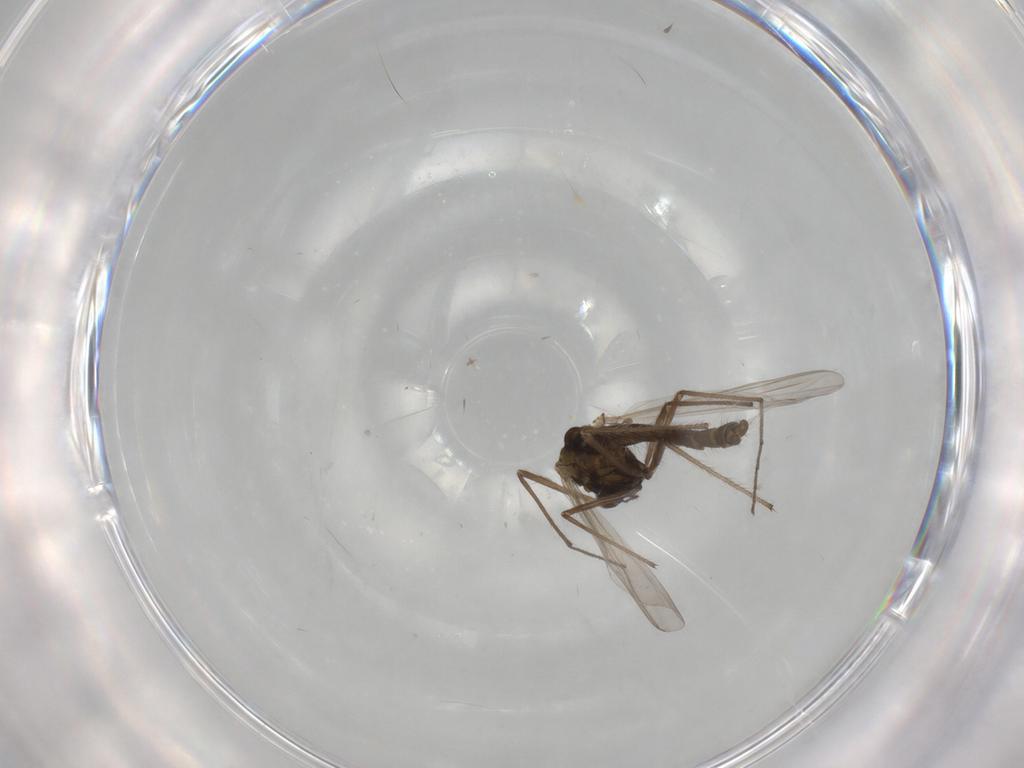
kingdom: Animalia
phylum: Arthropoda
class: Insecta
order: Diptera
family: Chironomidae
